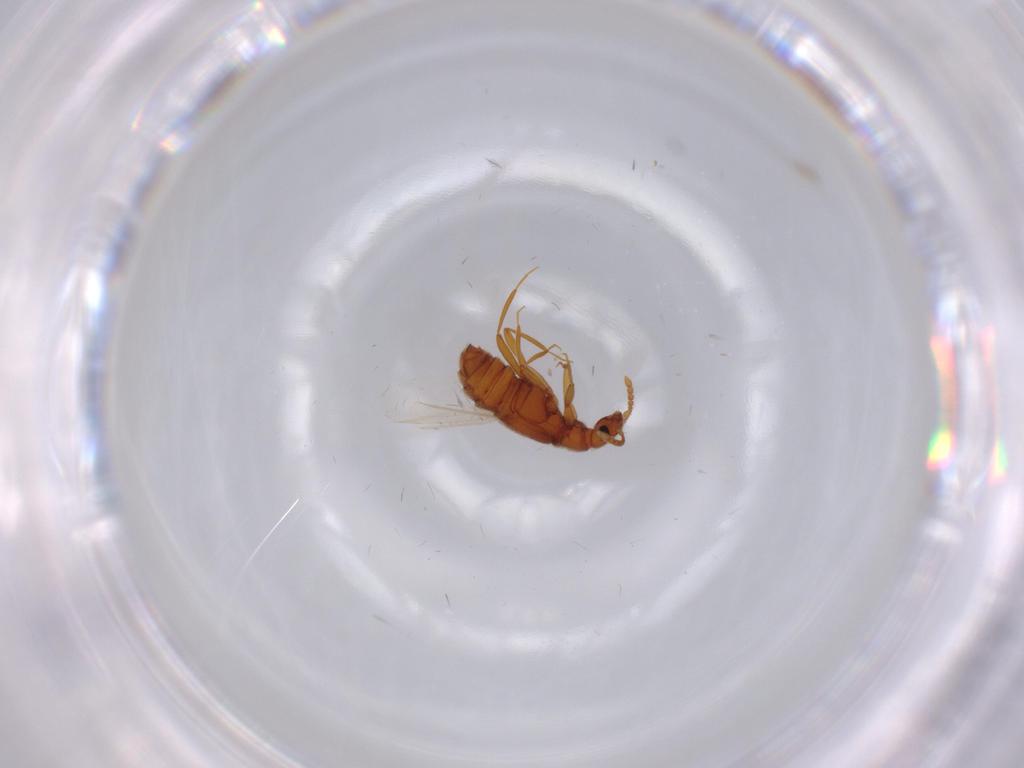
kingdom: Animalia
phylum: Arthropoda
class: Insecta
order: Coleoptera
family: Staphylinidae
